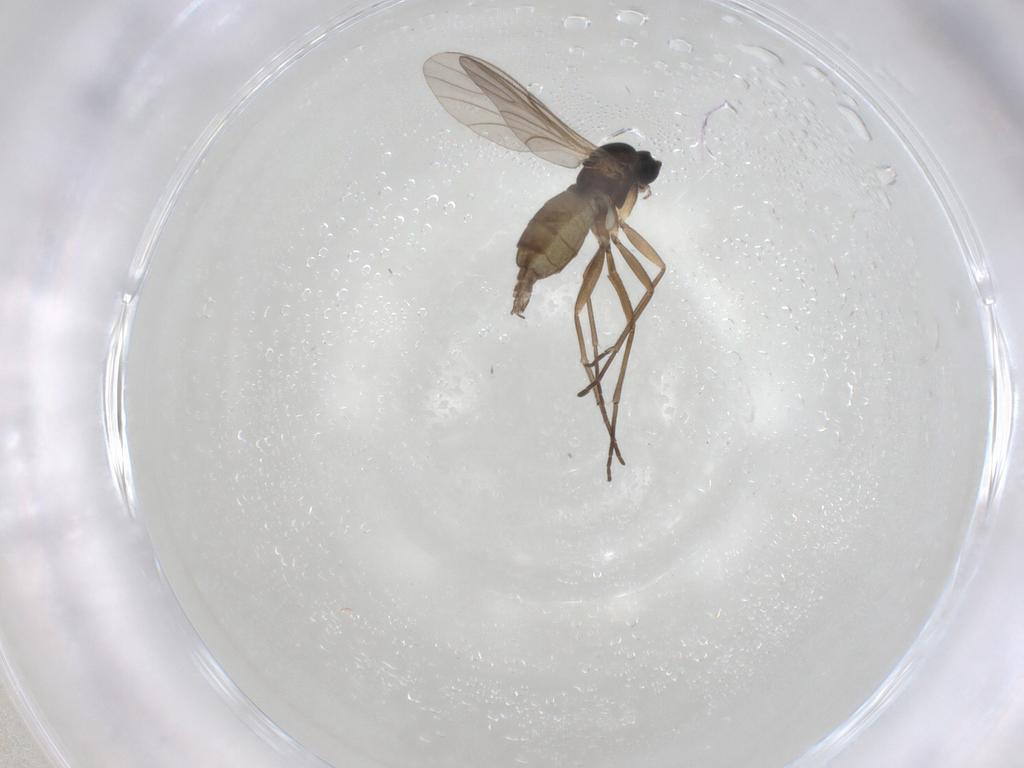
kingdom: Animalia
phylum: Arthropoda
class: Insecta
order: Diptera
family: Sciaridae
